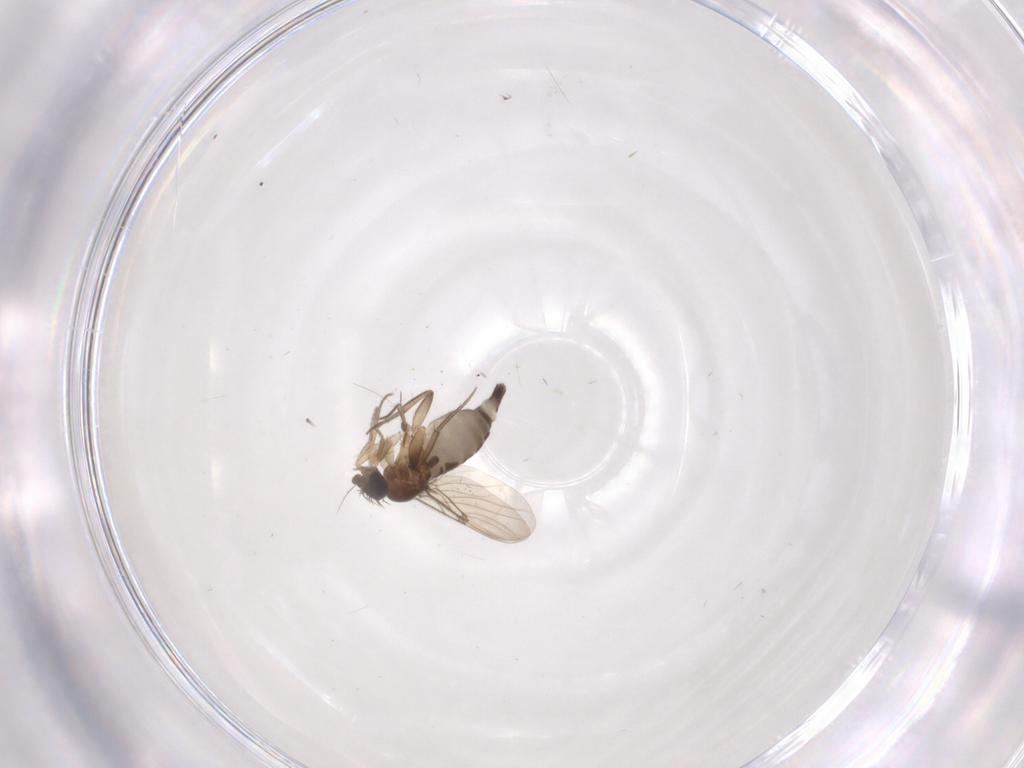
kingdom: Animalia
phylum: Arthropoda
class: Insecta
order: Diptera
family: Phoridae
